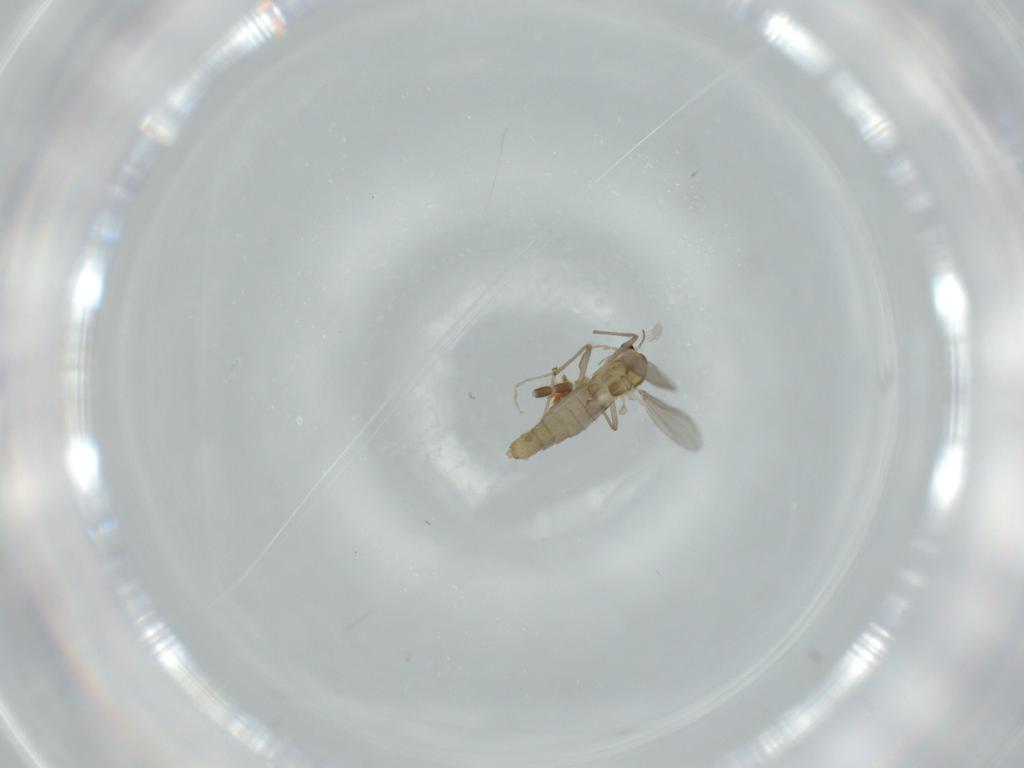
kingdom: Animalia
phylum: Arthropoda
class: Insecta
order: Diptera
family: Chironomidae
